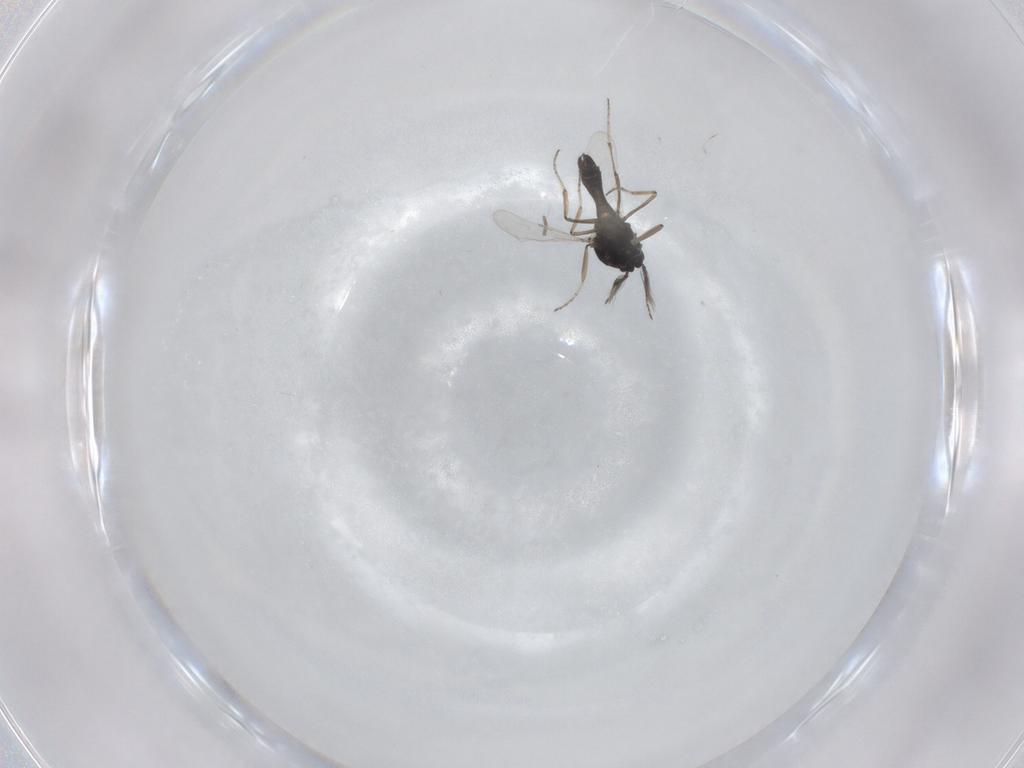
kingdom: Animalia
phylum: Arthropoda
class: Insecta
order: Diptera
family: Ceratopogonidae
